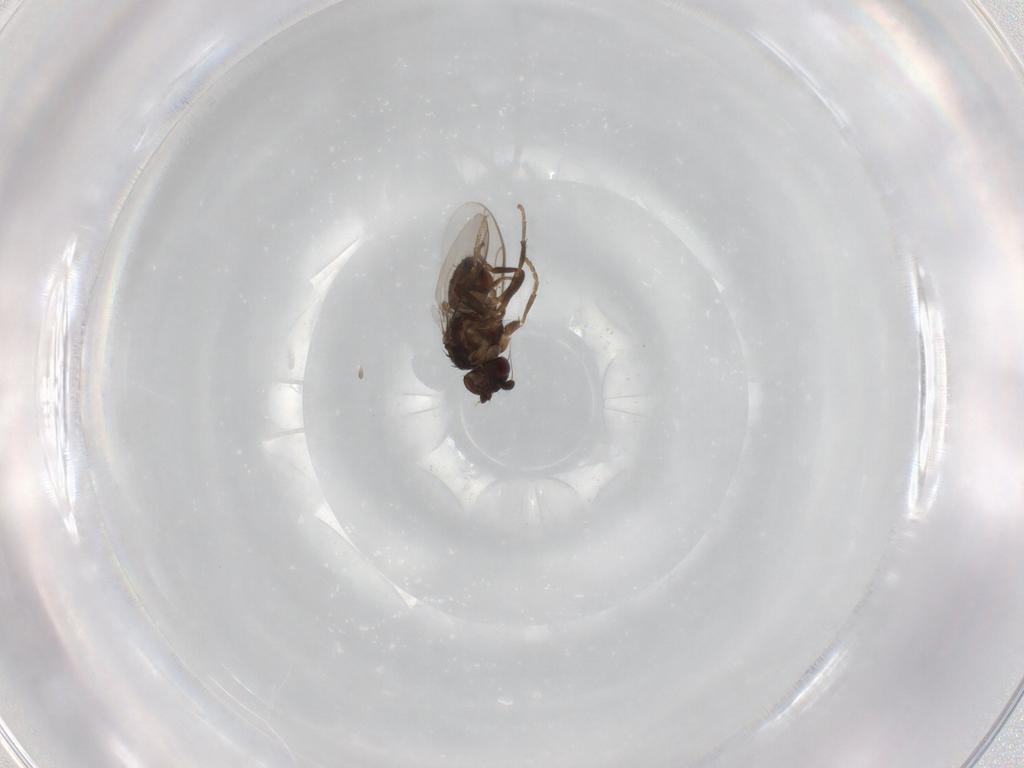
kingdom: Animalia
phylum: Arthropoda
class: Insecta
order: Diptera
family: Sphaeroceridae
